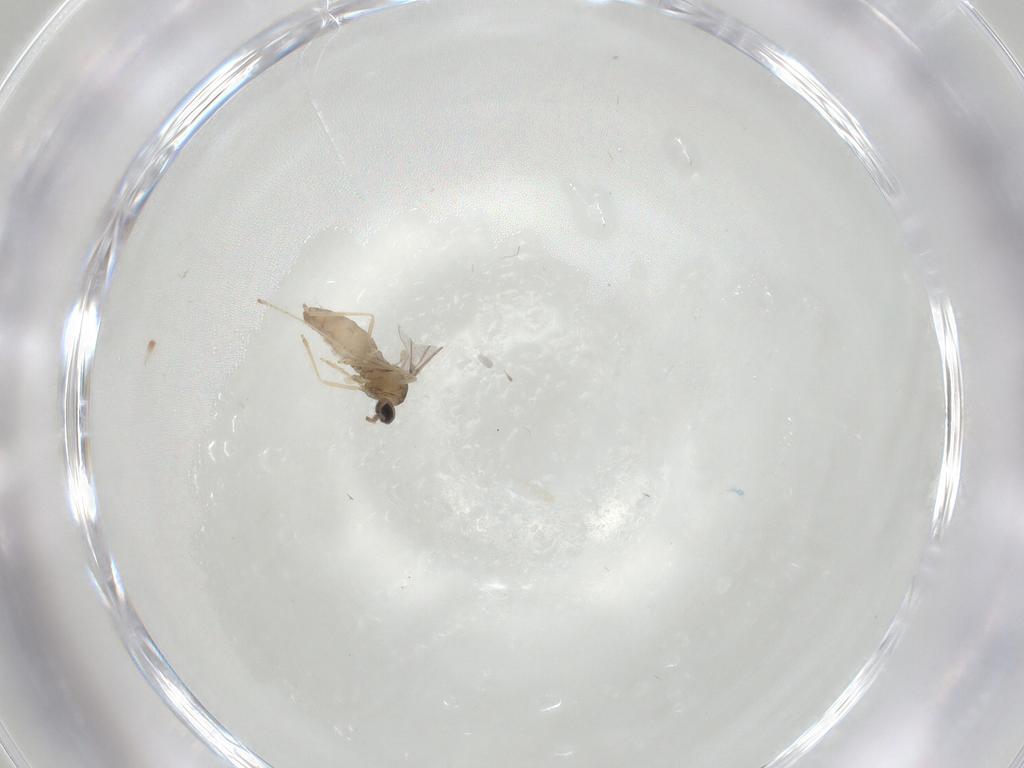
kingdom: Animalia
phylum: Arthropoda
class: Insecta
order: Diptera
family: Cecidomyiidae
